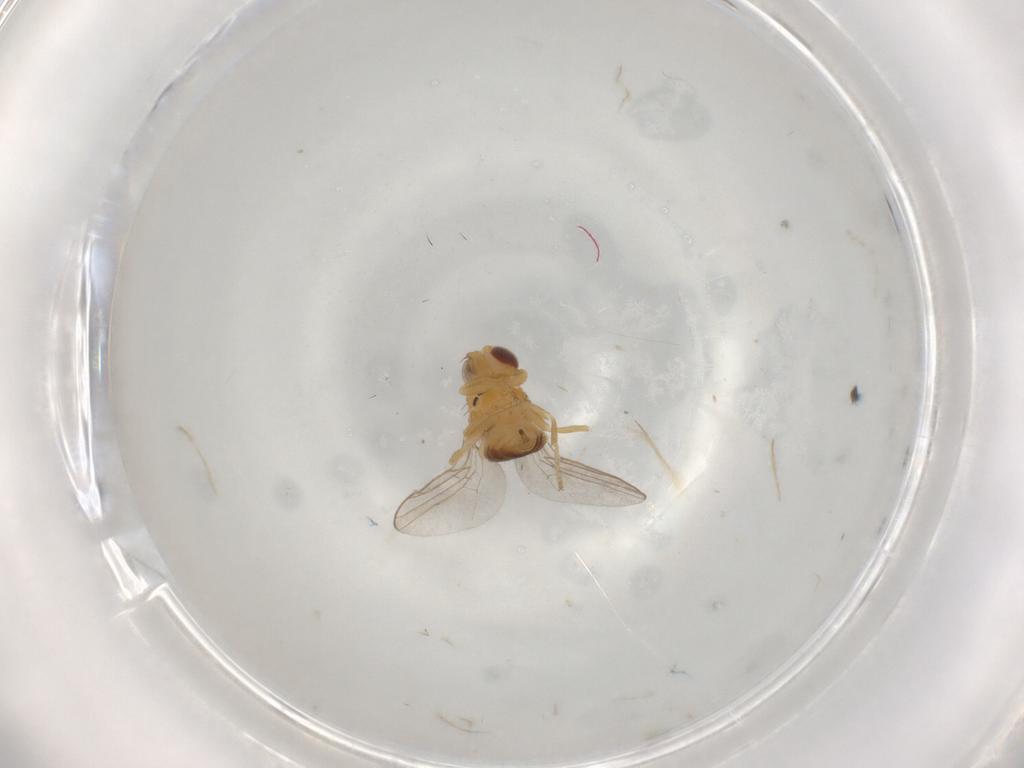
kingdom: Animalia
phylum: Arthropoda
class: Insecta
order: Diptera
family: Chloropidae
